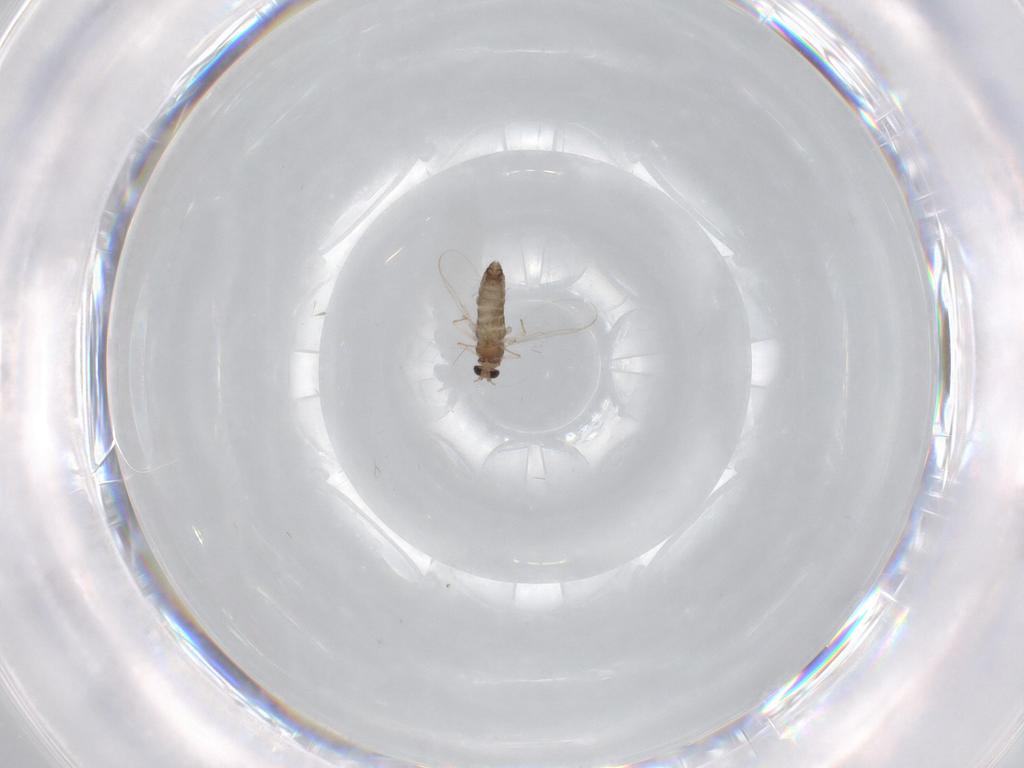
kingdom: Animalia
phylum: Arthropoda
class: Insecta
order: Diptera
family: Chironomidae
